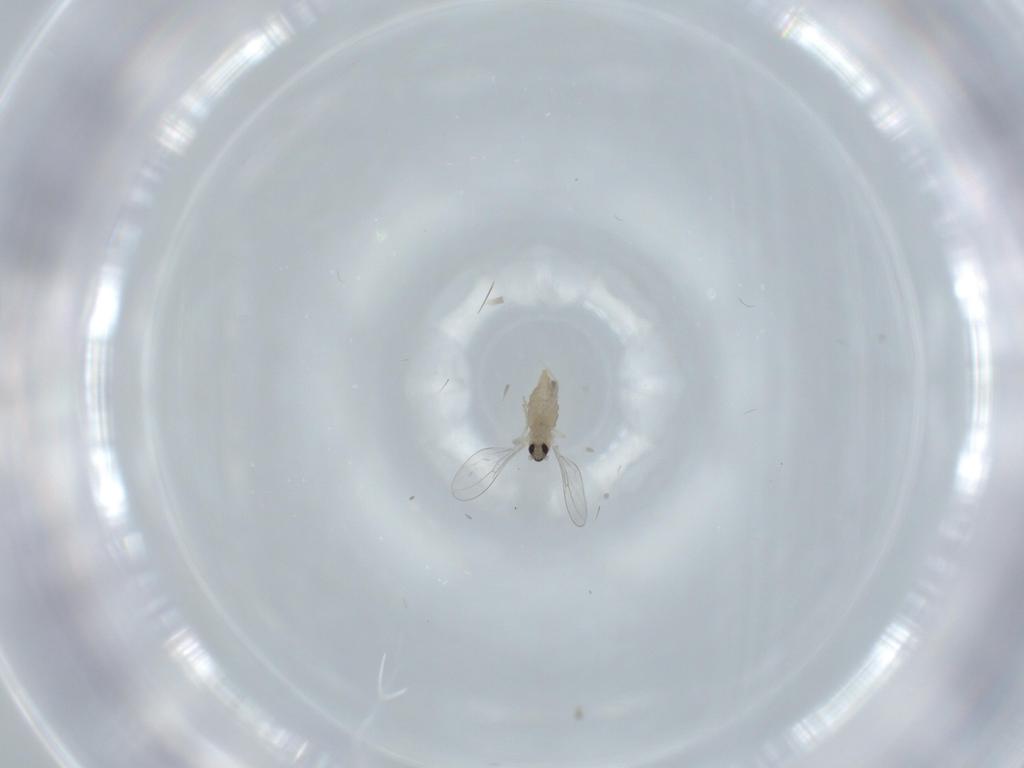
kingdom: Animalia
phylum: Arthropoda
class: Insecta
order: Diptera
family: Cecidomyiidae
